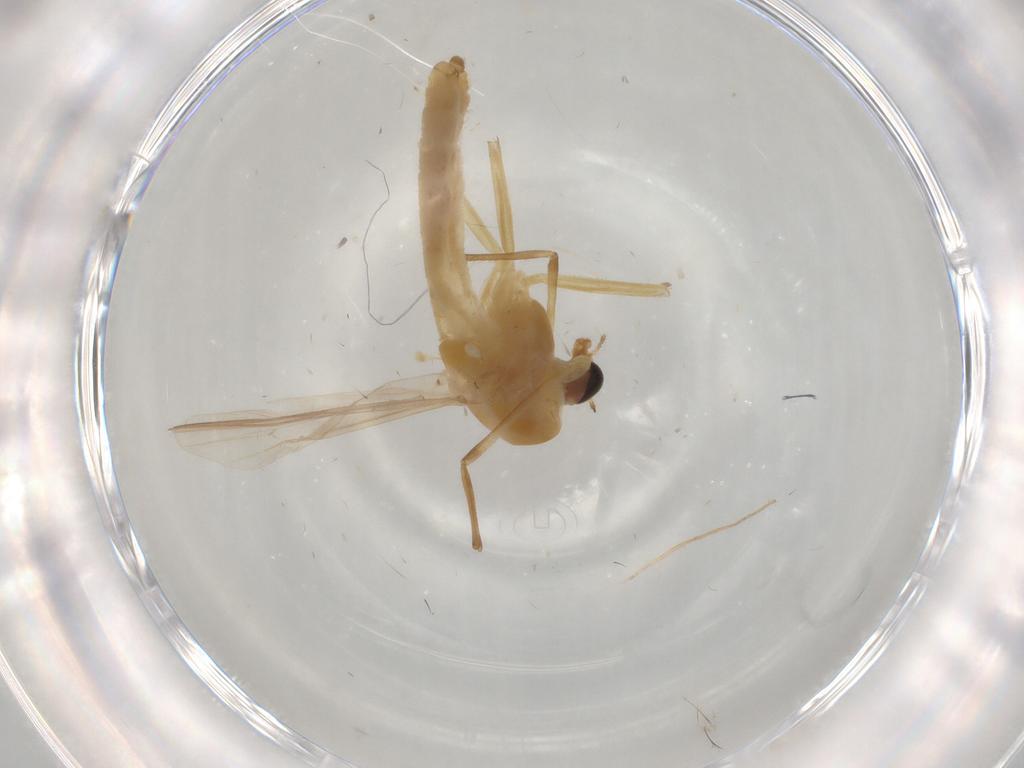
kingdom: Animalia
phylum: Arthropoda
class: Insecta
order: Diptera
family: Chironomidae
